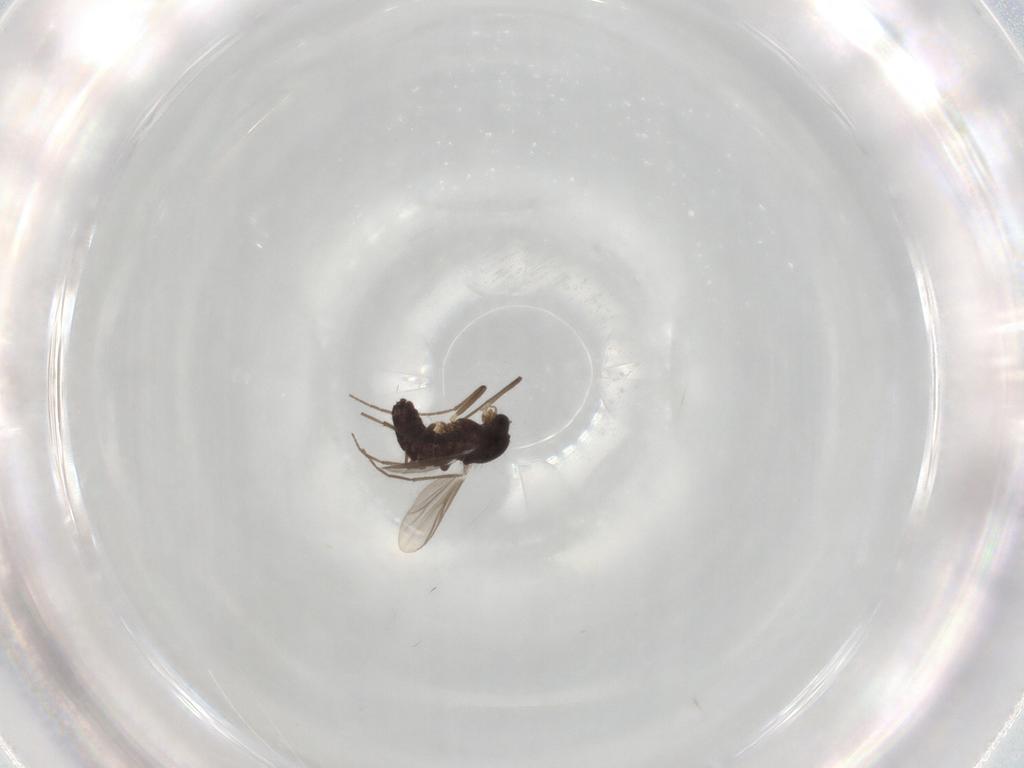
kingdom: Animalia
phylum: Arthropoda
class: Insecta
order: Diptera
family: Chironomidae
